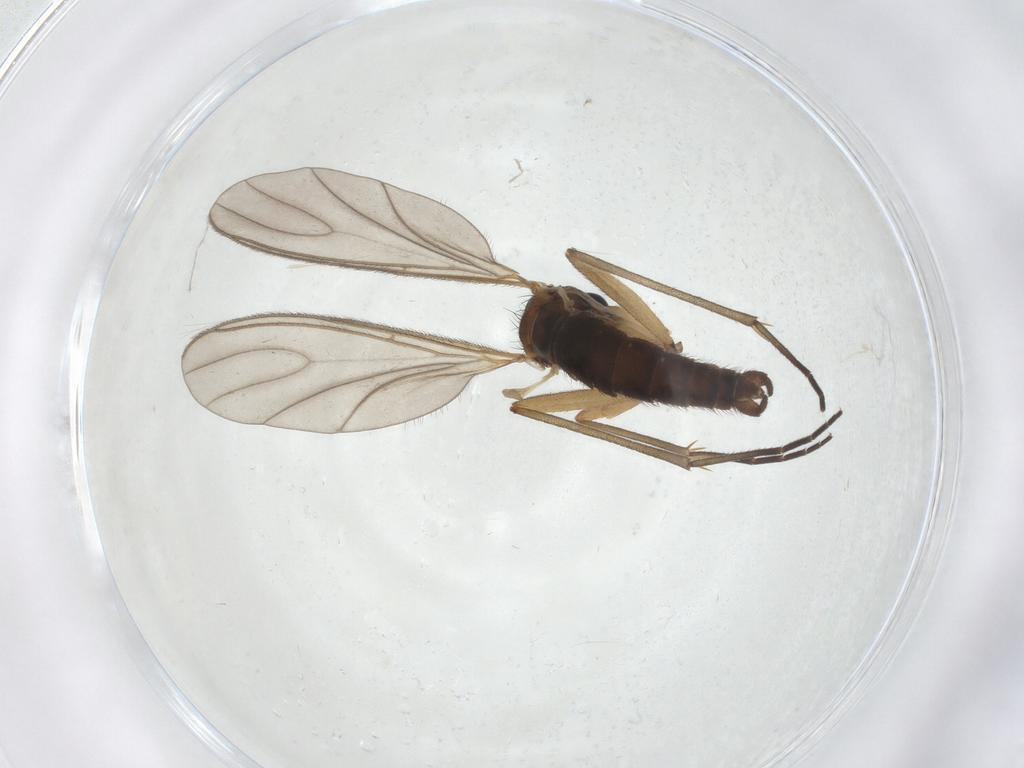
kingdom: Animalia
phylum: Arthropoda
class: Insecta
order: Diptera
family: Sciaridae
